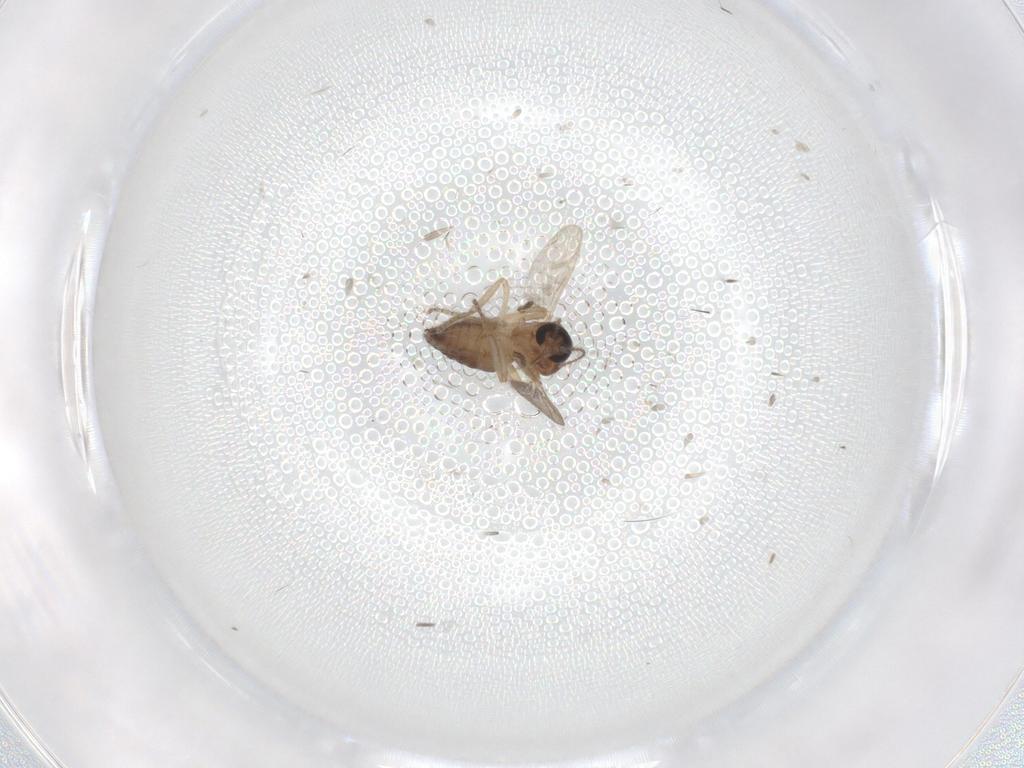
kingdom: Animalia
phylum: Arthropoda
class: Insecta
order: Diptera
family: Ceratopogonidae
